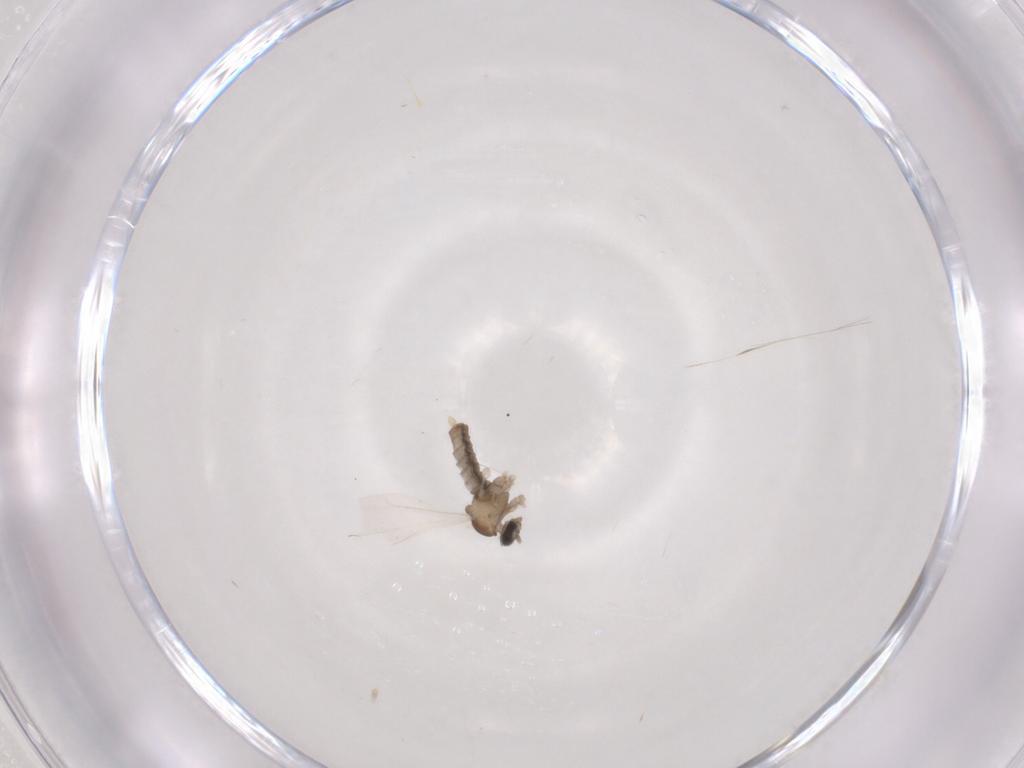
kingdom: Animalia
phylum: Arthropoda
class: Insecta
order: Diptera
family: Cecidomyiidae
